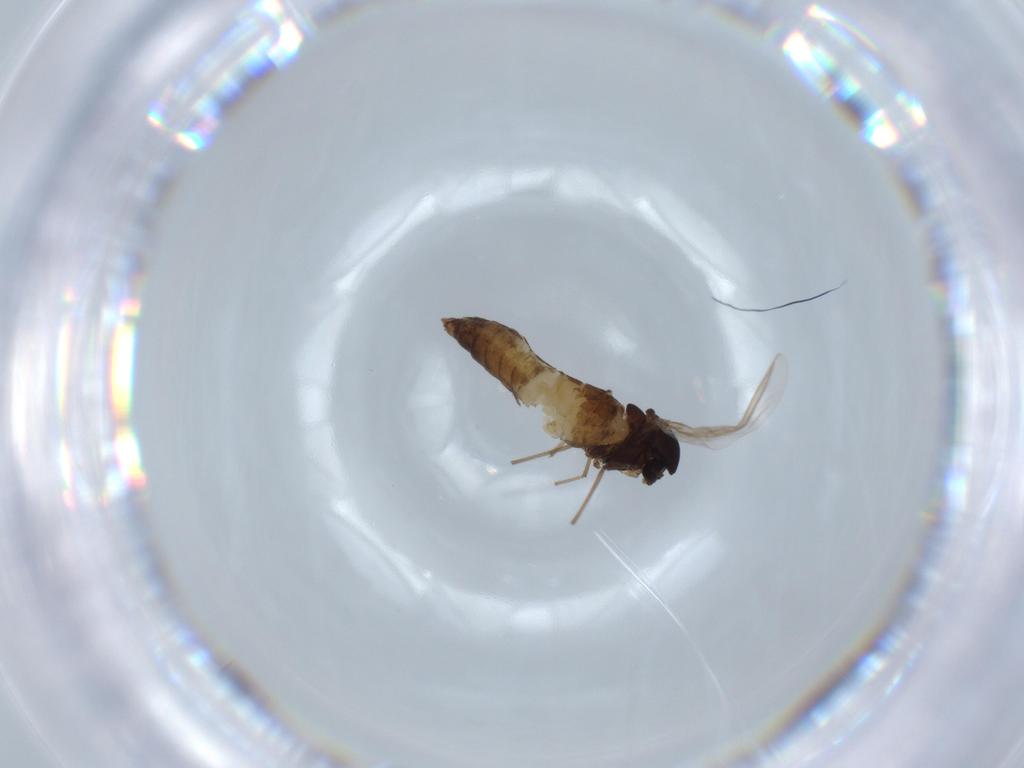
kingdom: Animalia
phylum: Arthropoda
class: Insecta
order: Diptera
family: Chironomidae
